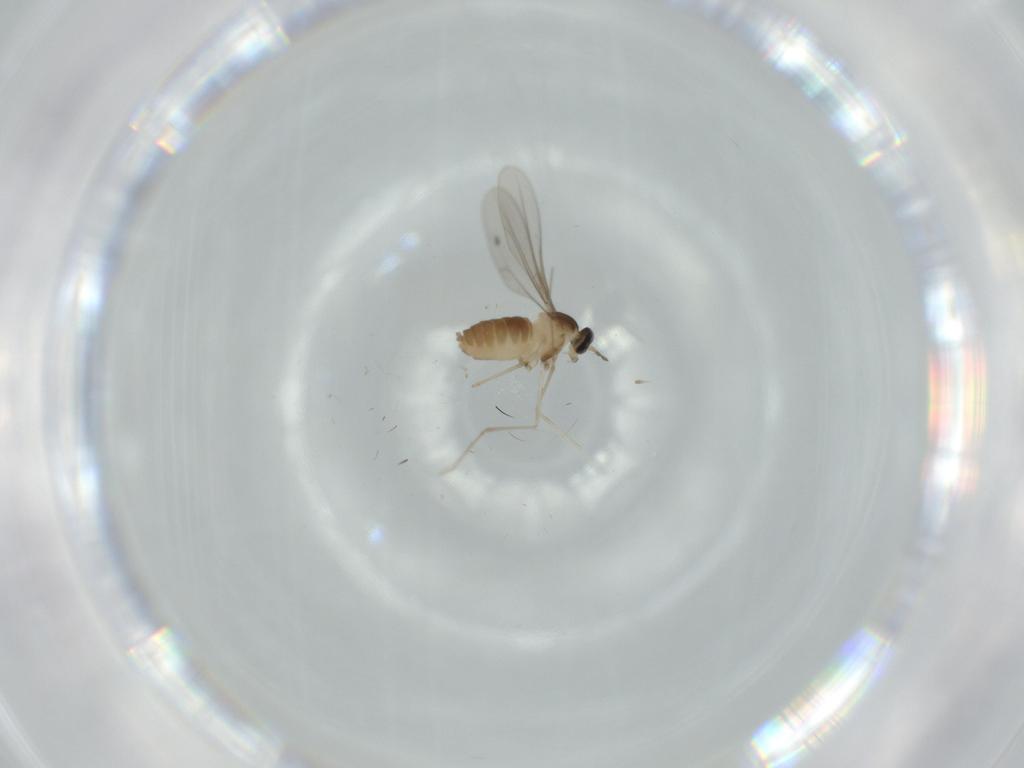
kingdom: Animalia
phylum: Arthropoda
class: Insecta
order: Diptera
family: Cecidomyiidae
